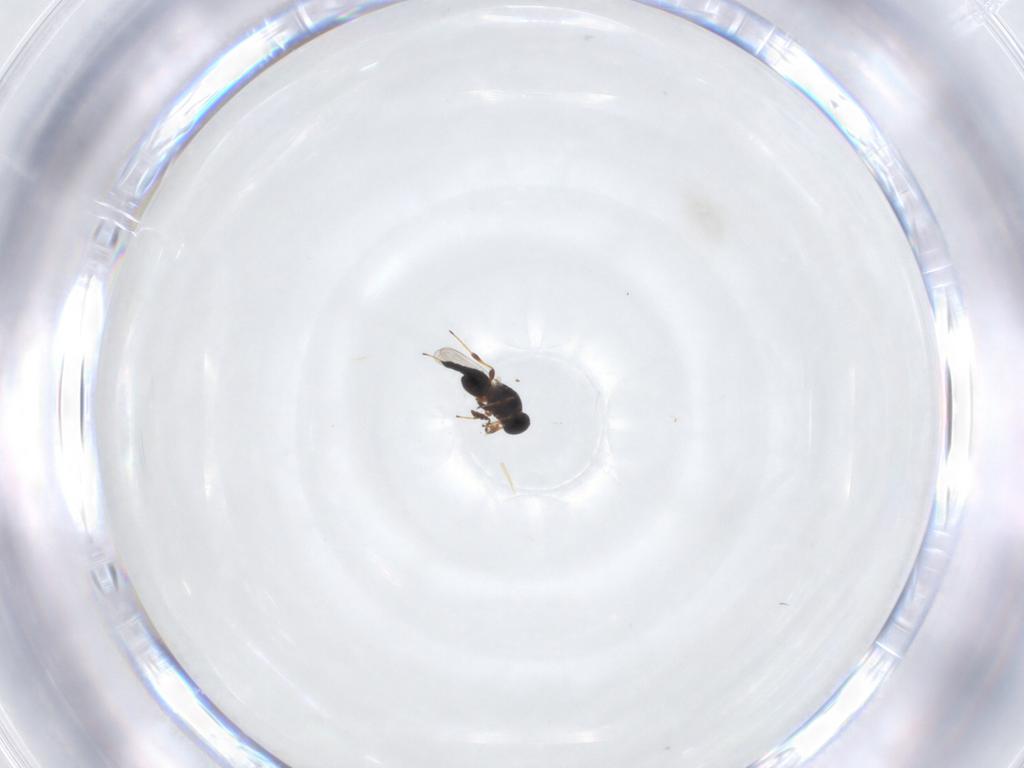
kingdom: Animalia
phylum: Arthropoda
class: Insecta
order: Hymenoptera
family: Platygastridae
